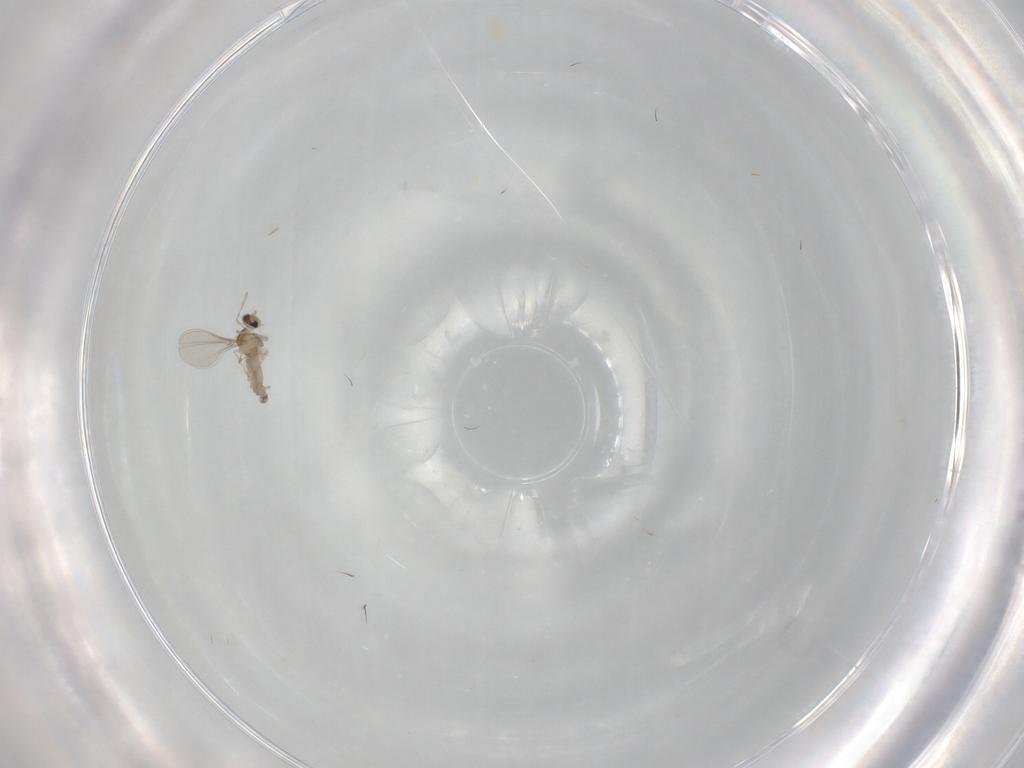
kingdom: Animalia
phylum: Arthropoda
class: Insecta
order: Diptera
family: Cecidomyiidae
